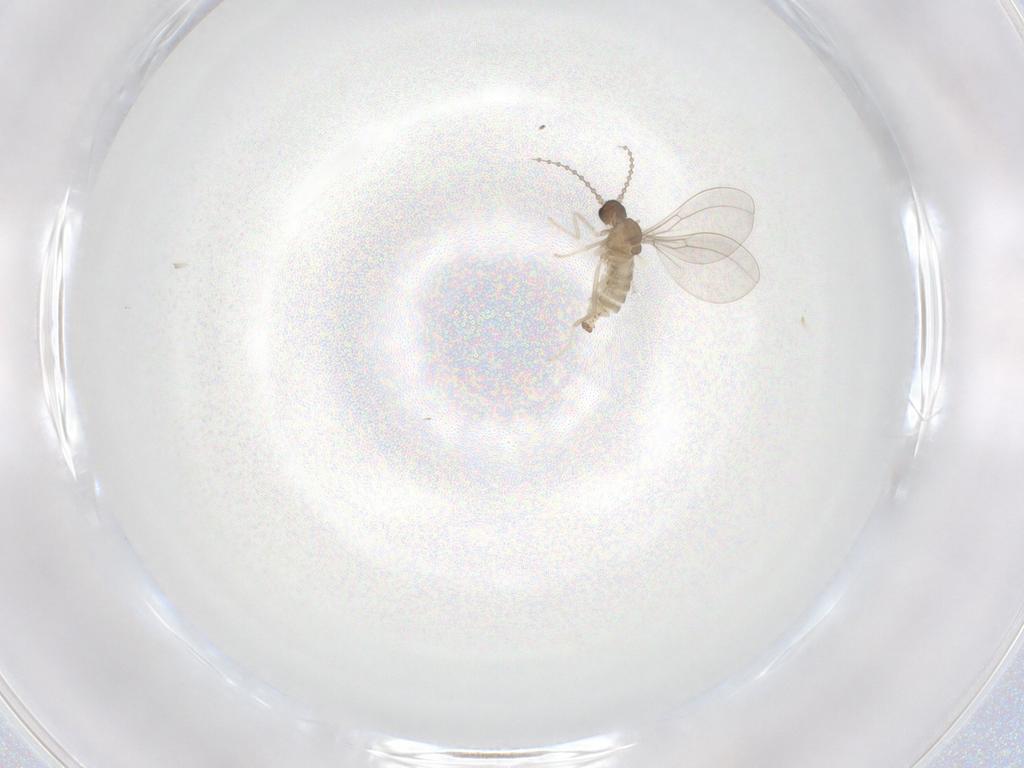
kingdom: Animalia
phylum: Arthropoda
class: Insecta
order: Diptera
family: Cecidomyiidae
